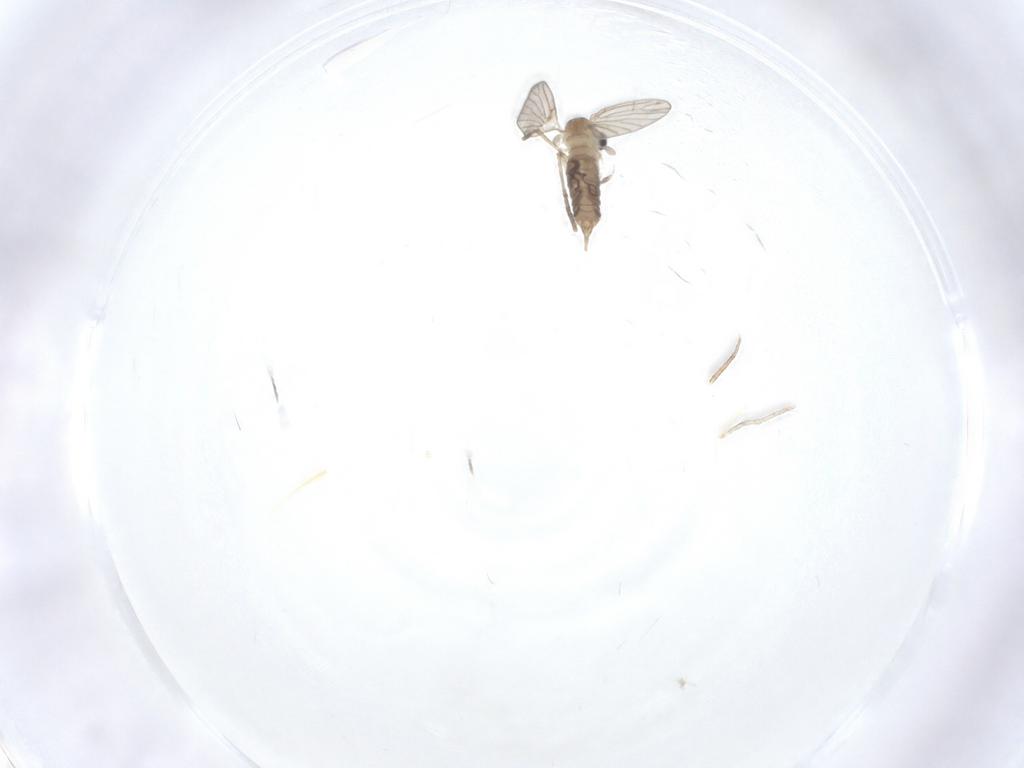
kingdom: Animalia
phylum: Arthropoda
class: Insecta
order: Diptera
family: Cecidomyiidae
